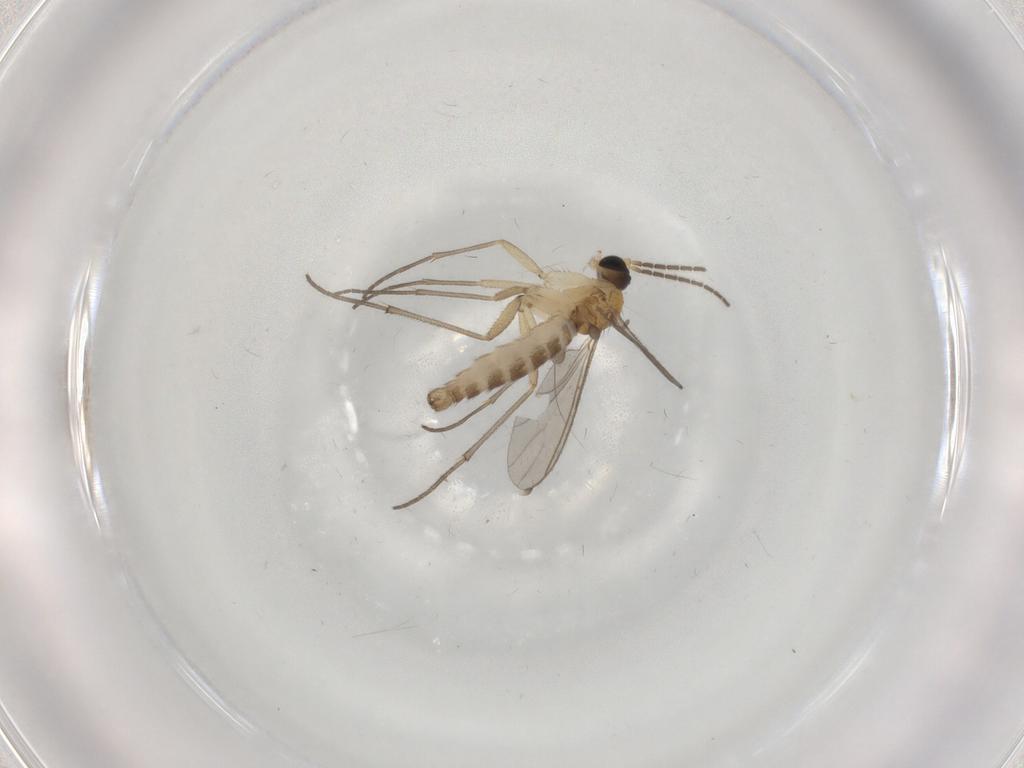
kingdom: Animalia
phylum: Arthropoda
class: Insecta
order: Diptera
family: Sciaridae
